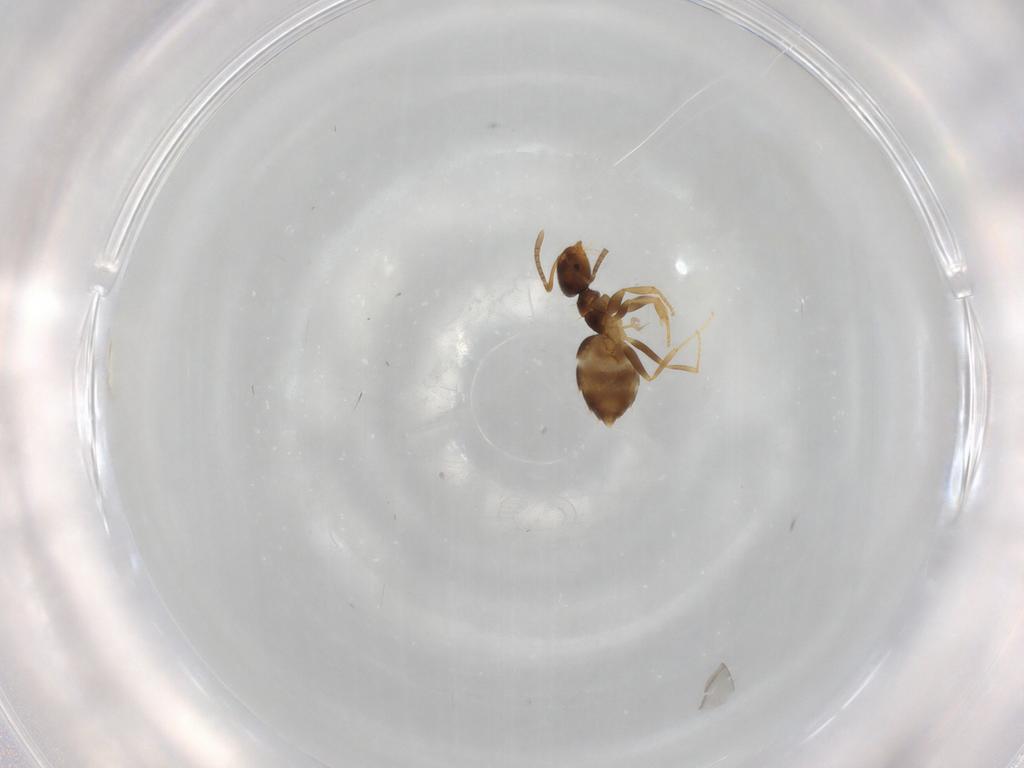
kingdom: Animalia
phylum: Arthropoda
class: Insecta
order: Hymenoptera
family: Formicidae
